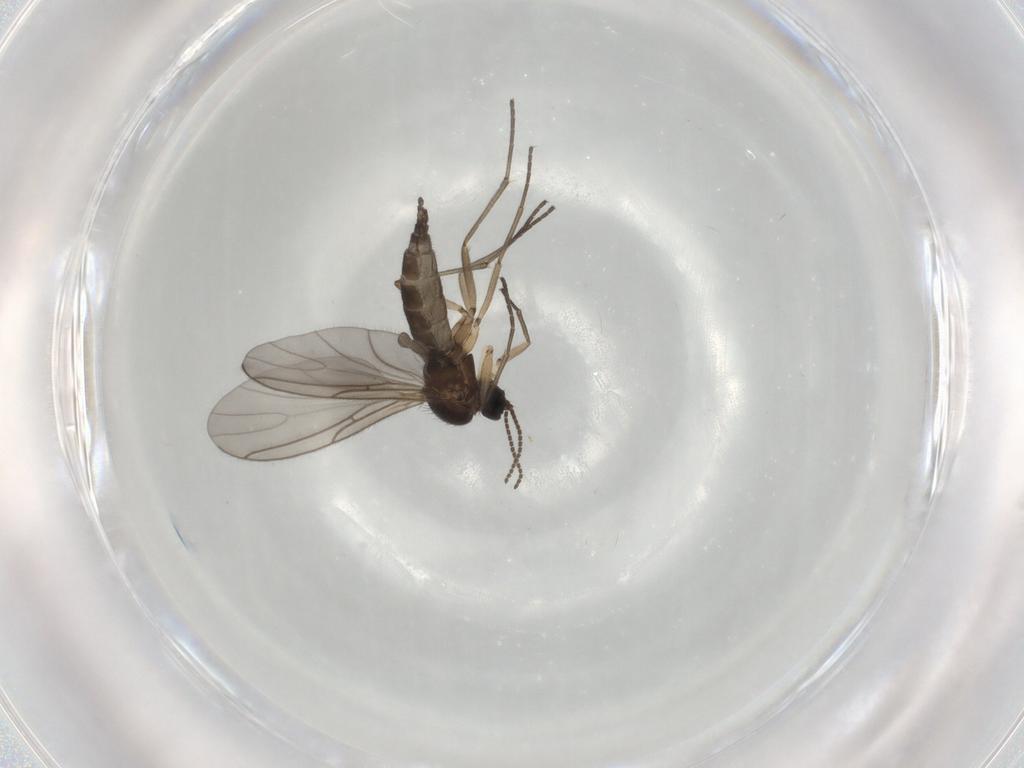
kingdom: Animalia
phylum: Arthropoda
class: Insecta
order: Diptera
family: Sciaridae
